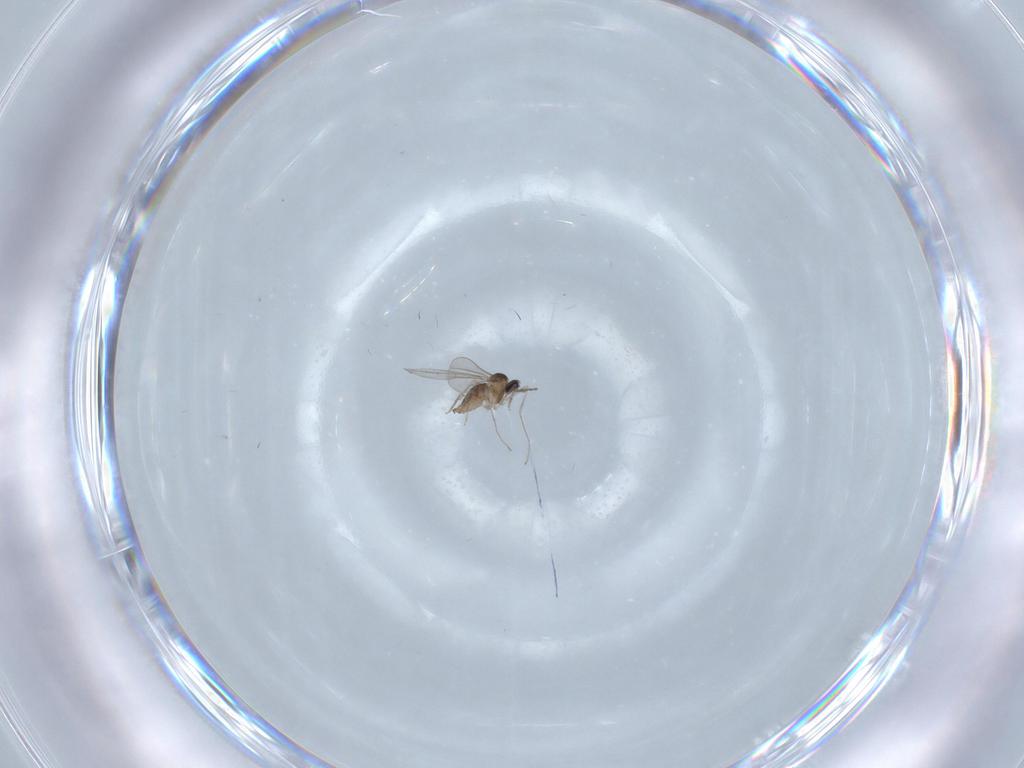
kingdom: Animalia
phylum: Arthropoda
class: Insecta
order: Diptera
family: Cecidomyiidae
